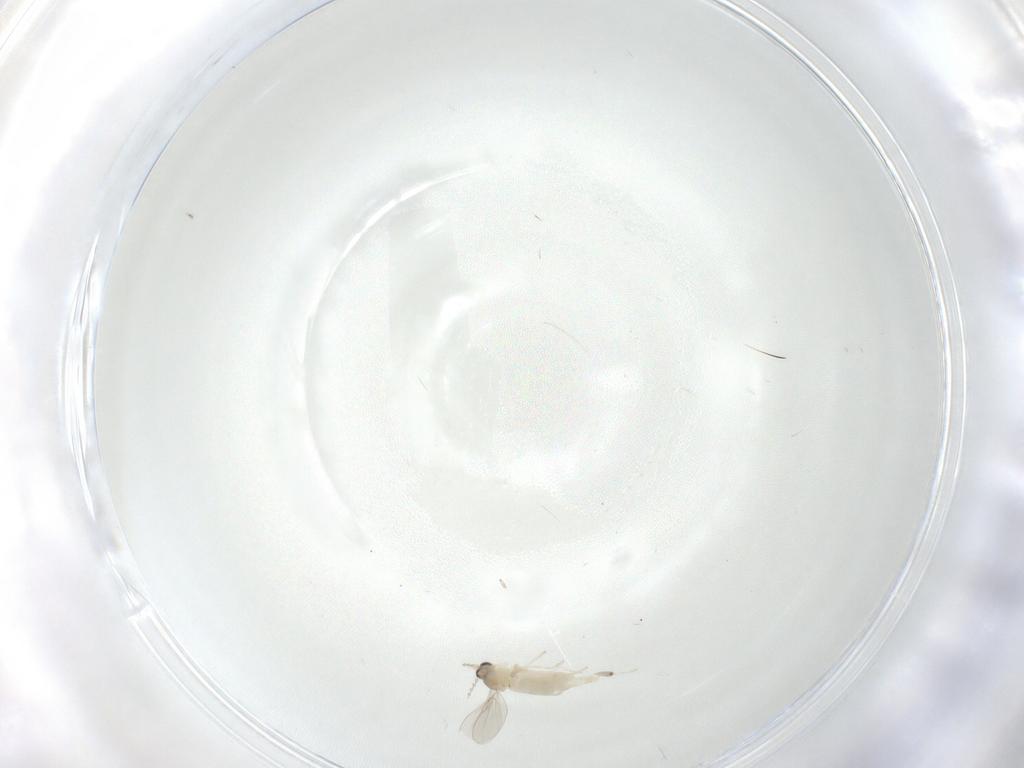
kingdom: Animalia
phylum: Arthropoda
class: Insecta
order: Diptera
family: Cecidomyiidae
